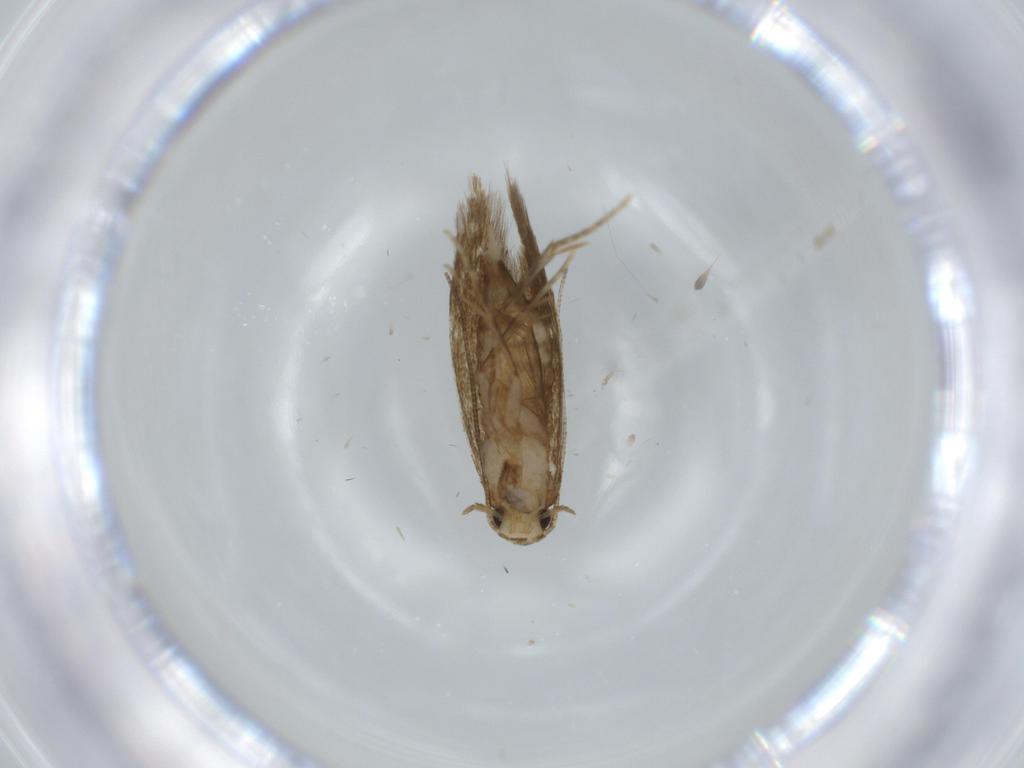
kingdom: Animalia
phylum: Arthropoda
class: Insecta
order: Lepidoptera
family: Tineidae
